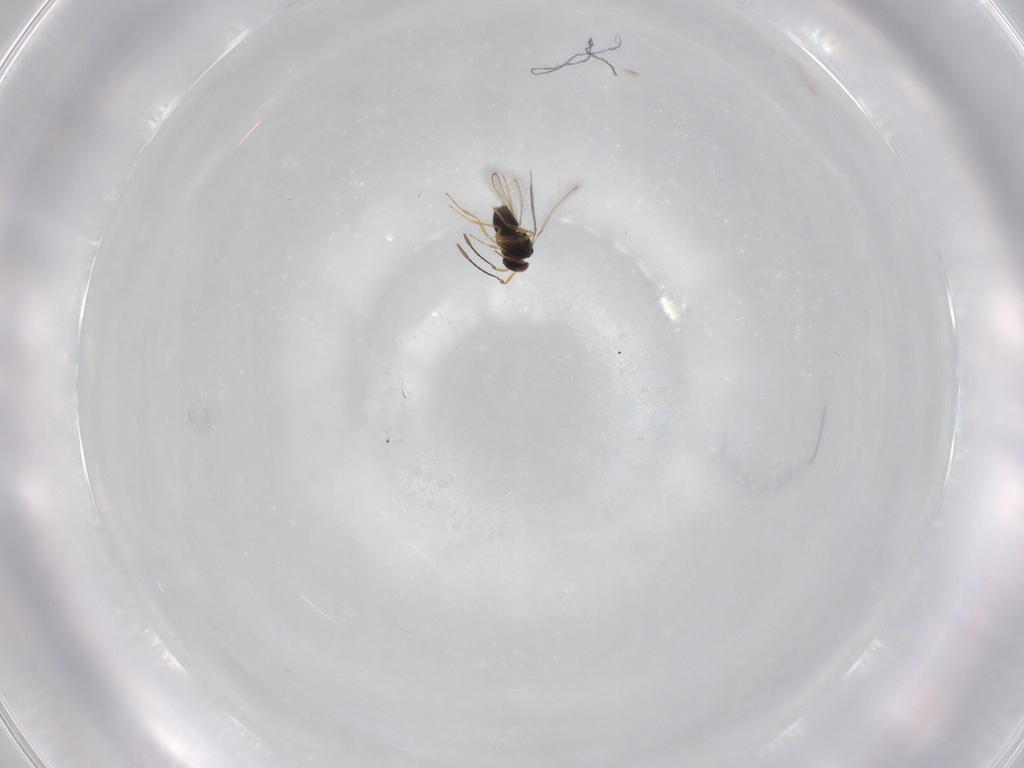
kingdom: Animalia
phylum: Arthropoda
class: Insecta
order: Hymenoptera
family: Mymaridae
